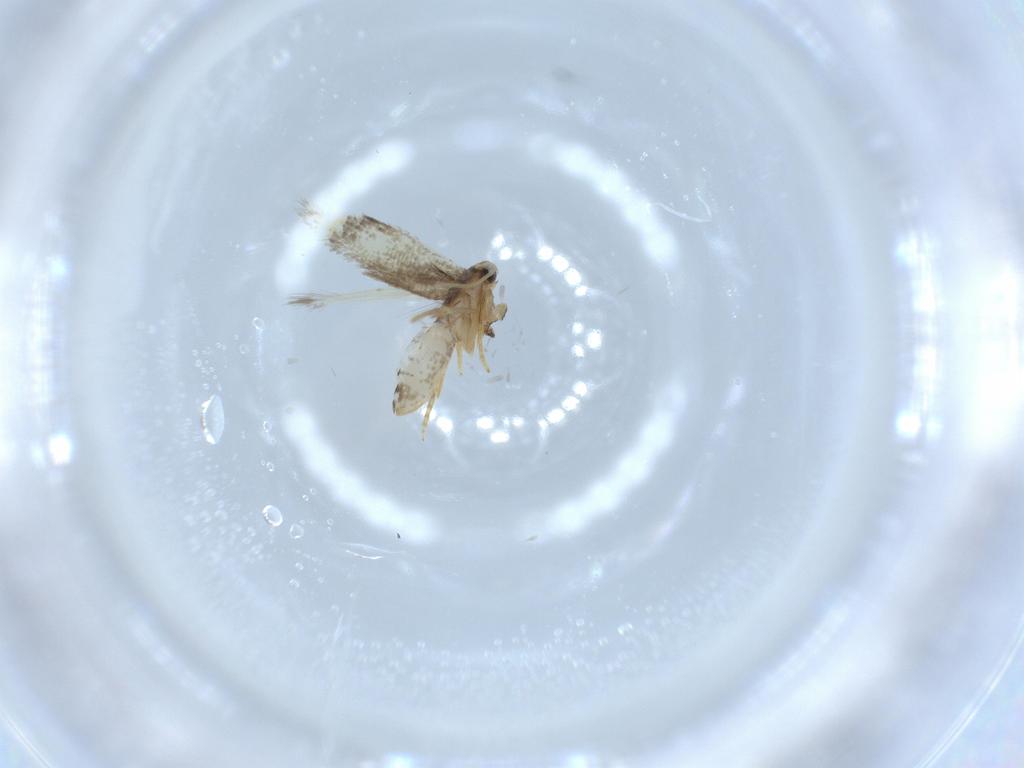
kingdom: Animalia
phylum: Arthropoda
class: Insecta
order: Lepidoptera
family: Nepticulidae
